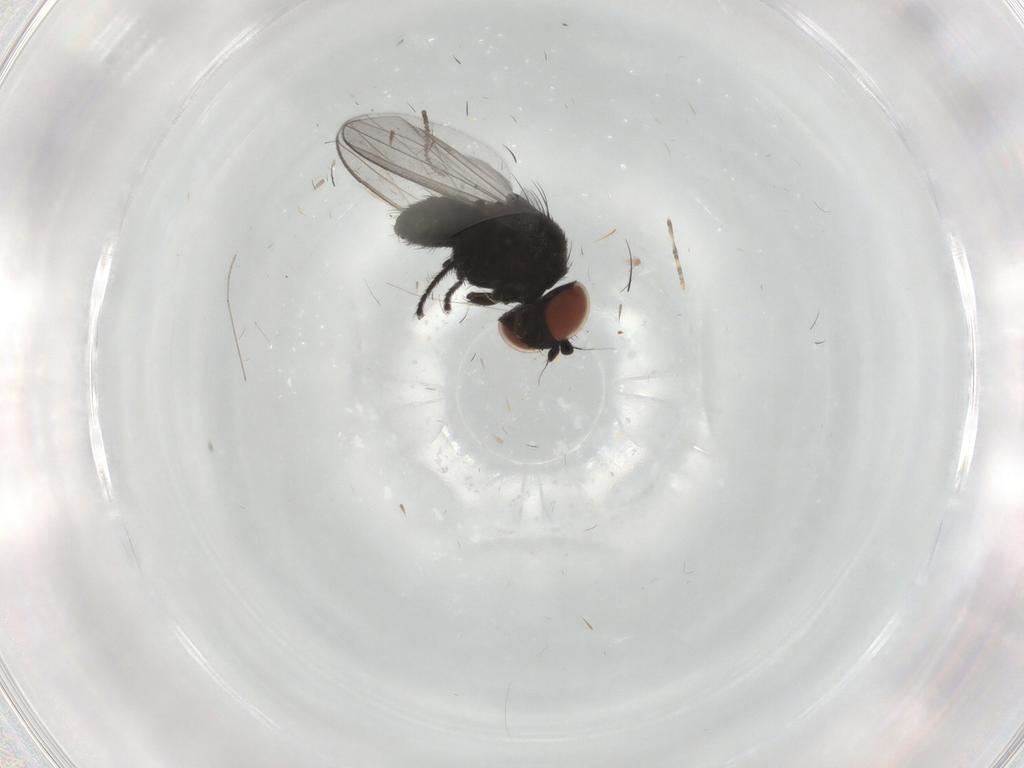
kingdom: Animalia
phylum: Arthropoda
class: Insecta
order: Diptera
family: Milichiidae
